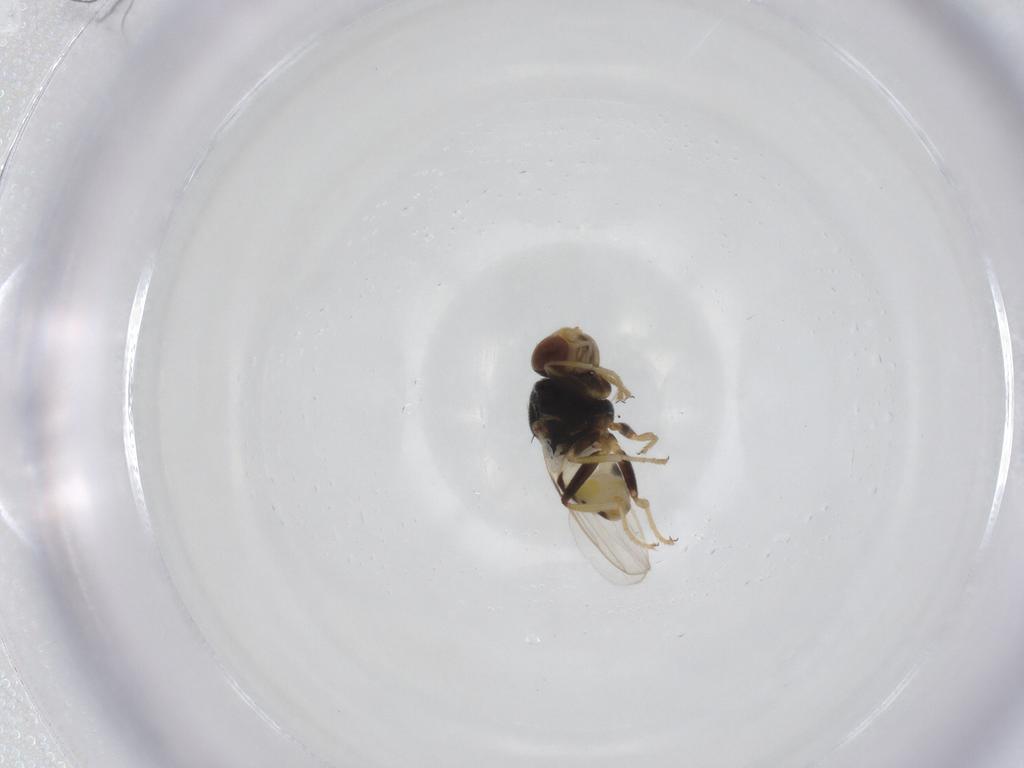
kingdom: Animalia
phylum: Arthropoda
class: Insecta
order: Diptera
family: Chloropidae
